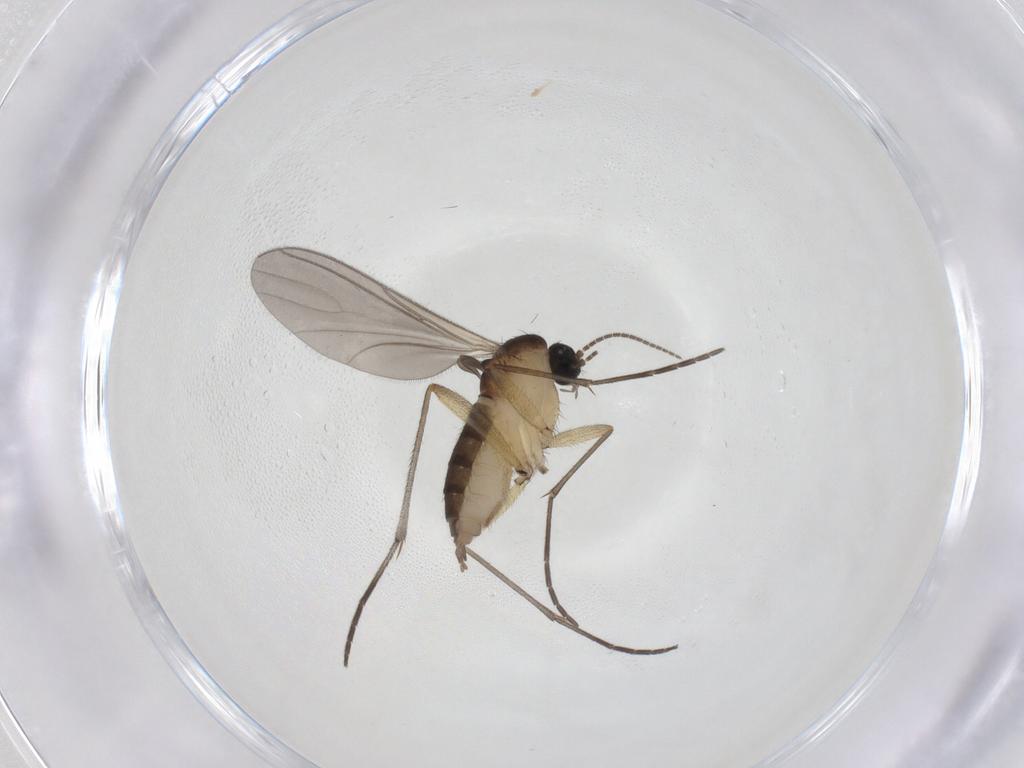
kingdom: Animalia
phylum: Arthropoda
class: Insecta
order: Diptera
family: Sciaridae
